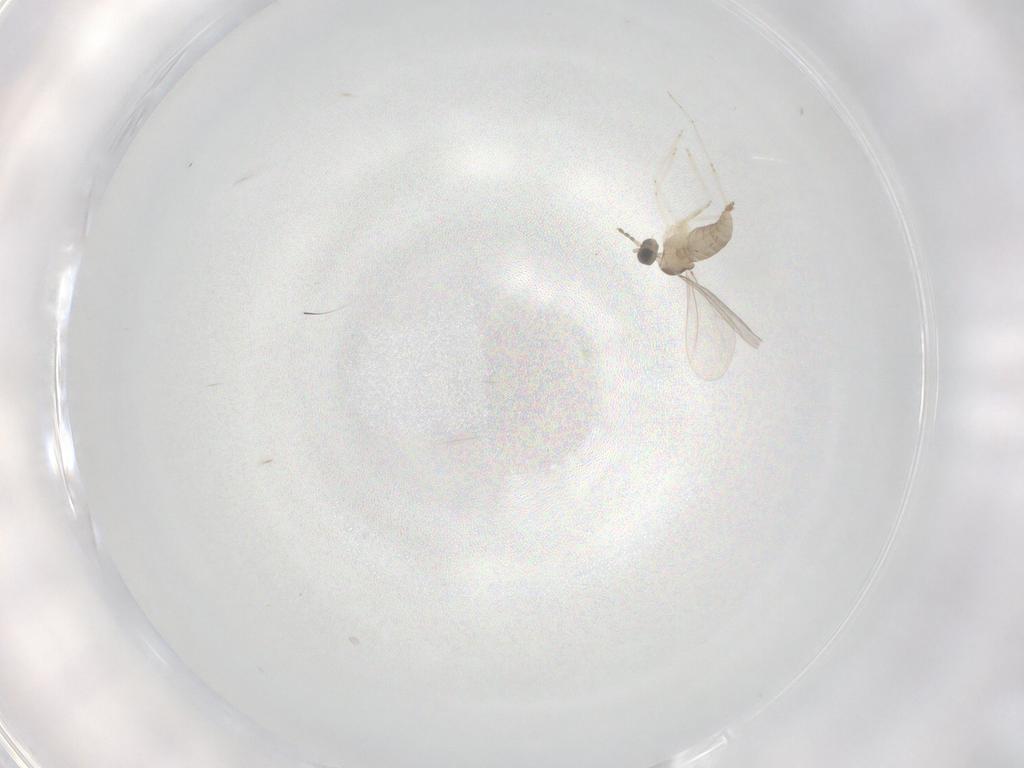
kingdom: Animalia
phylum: Arthropoda
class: Insecta
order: Diptera
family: Cecidomyiidae
